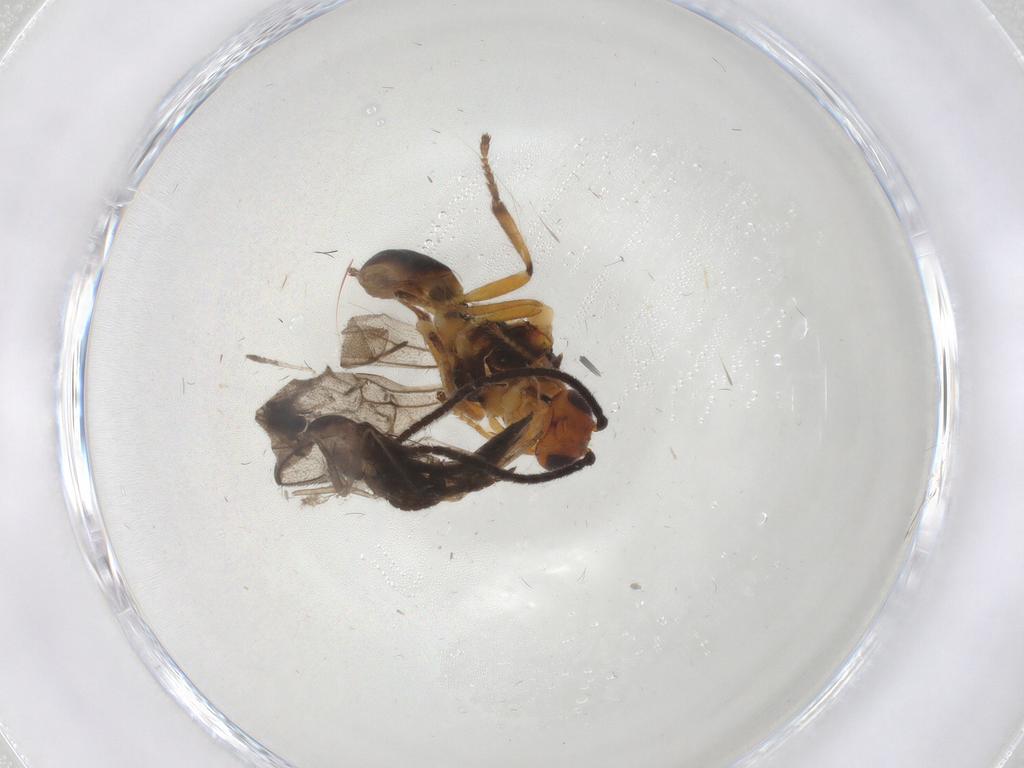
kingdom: Animalia
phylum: Arthropoda
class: Insecta
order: Hymenoptera
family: Proctotrupidae
